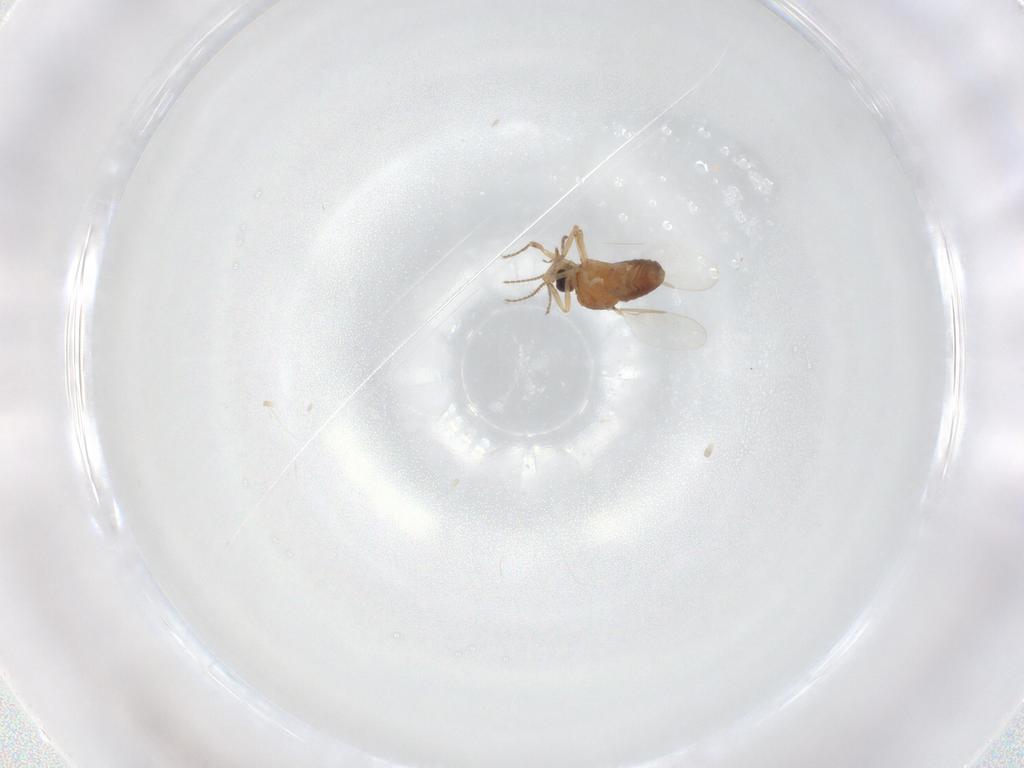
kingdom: Animalia
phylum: Arthropoda
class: Insecta
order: Diptera
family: Ceratopogonidae
